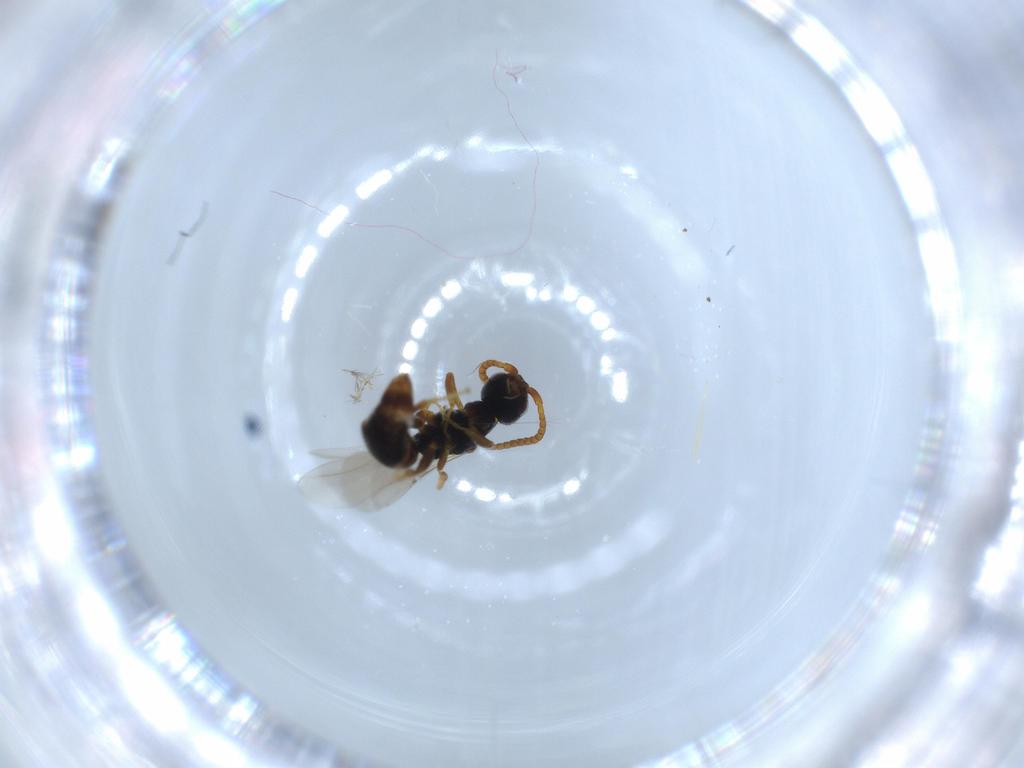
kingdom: Animalia
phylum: Arthropoda
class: Insecta
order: Hymenoptera
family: Bethylidae
